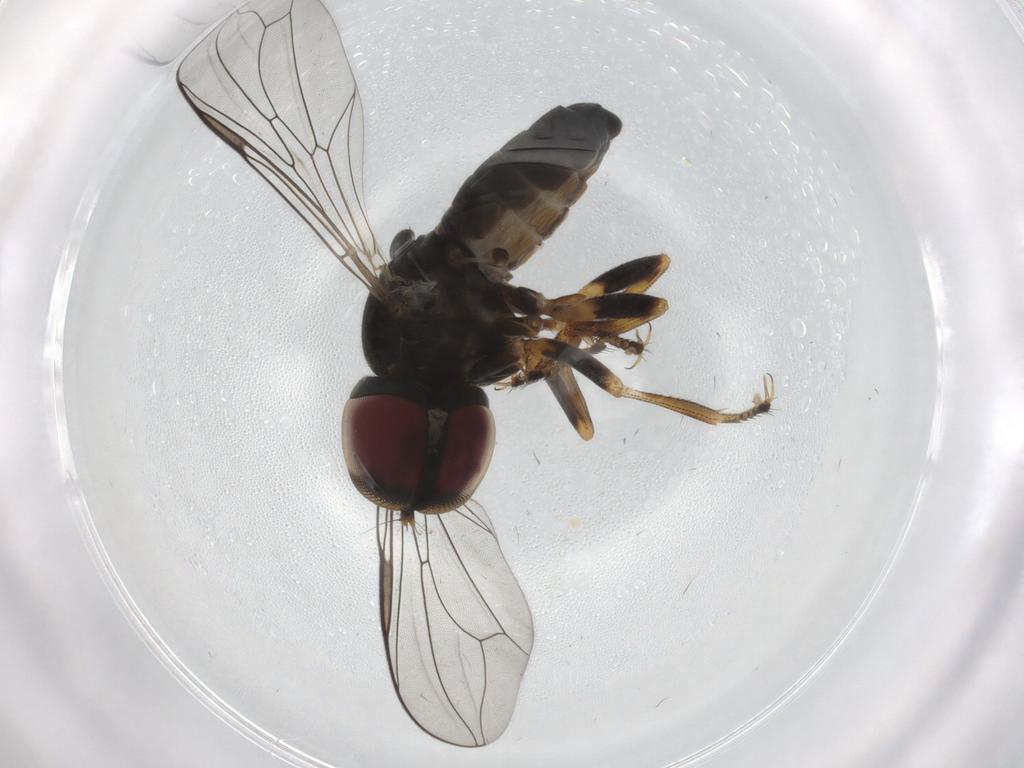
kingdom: Animalia
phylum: Arthropoda
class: Insecta
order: Diptera
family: Pipunculidae
